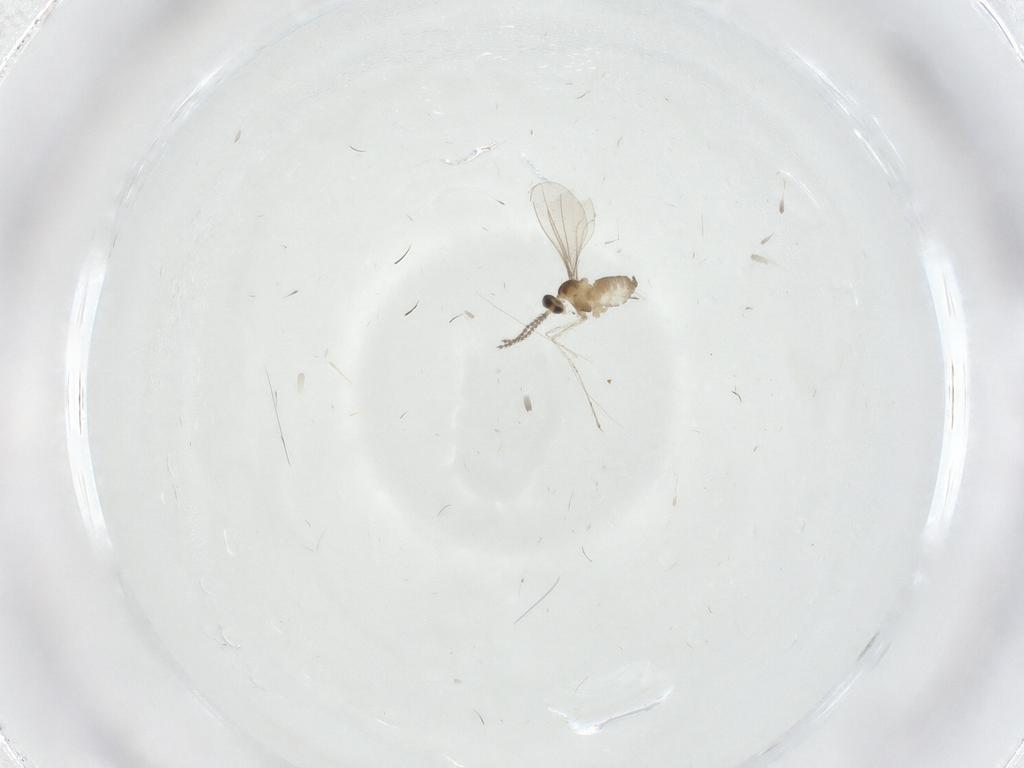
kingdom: Animalia
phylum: Arthropoda
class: Insecta
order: Diptera
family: Cecidomyiidae
